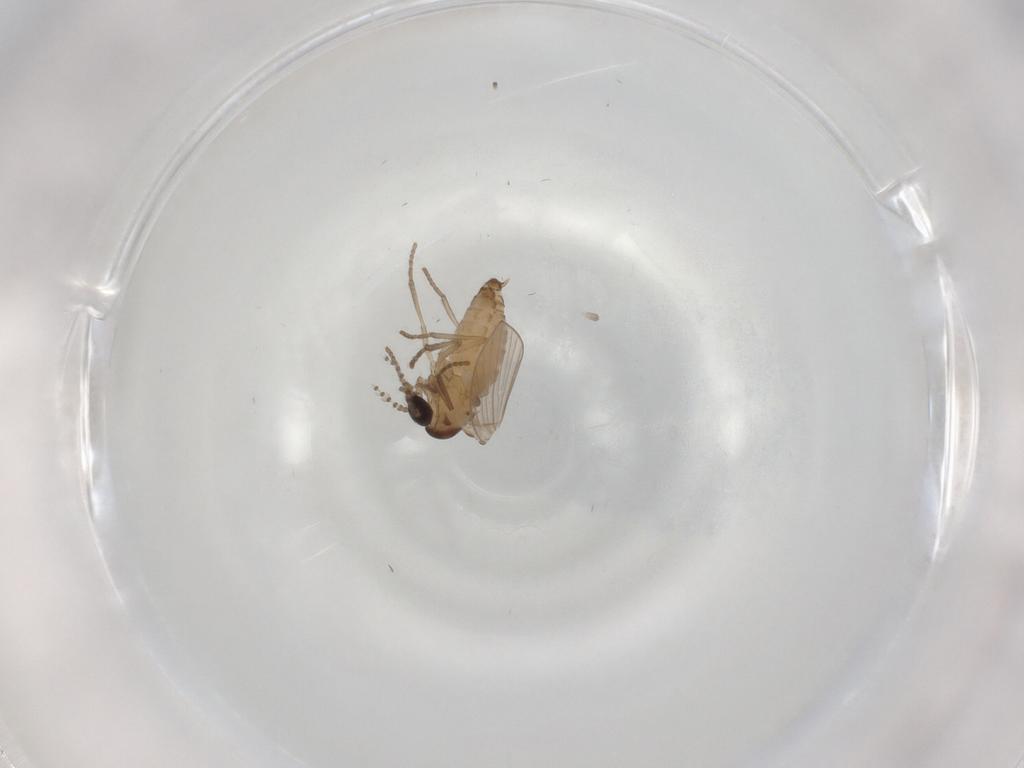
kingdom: Animalia
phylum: Arthropoda
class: Insecta
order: Diptera
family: Psychodidae
